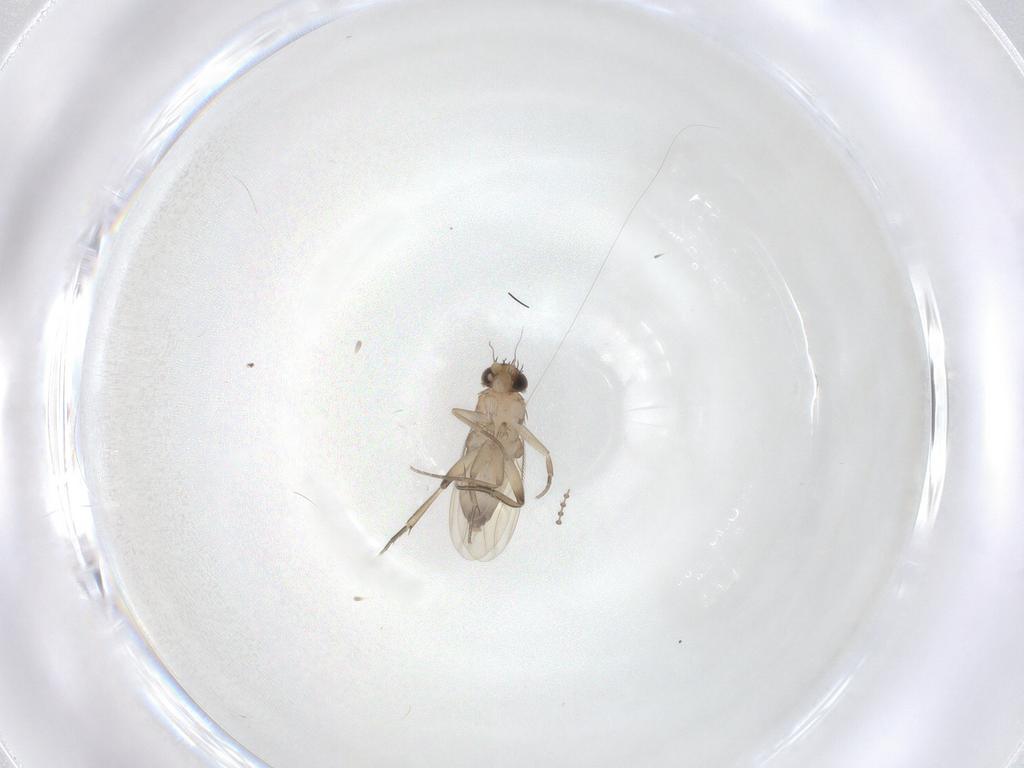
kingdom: Animalia
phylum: Arthropoda
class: Insecta
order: Diptera
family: Phoridae
